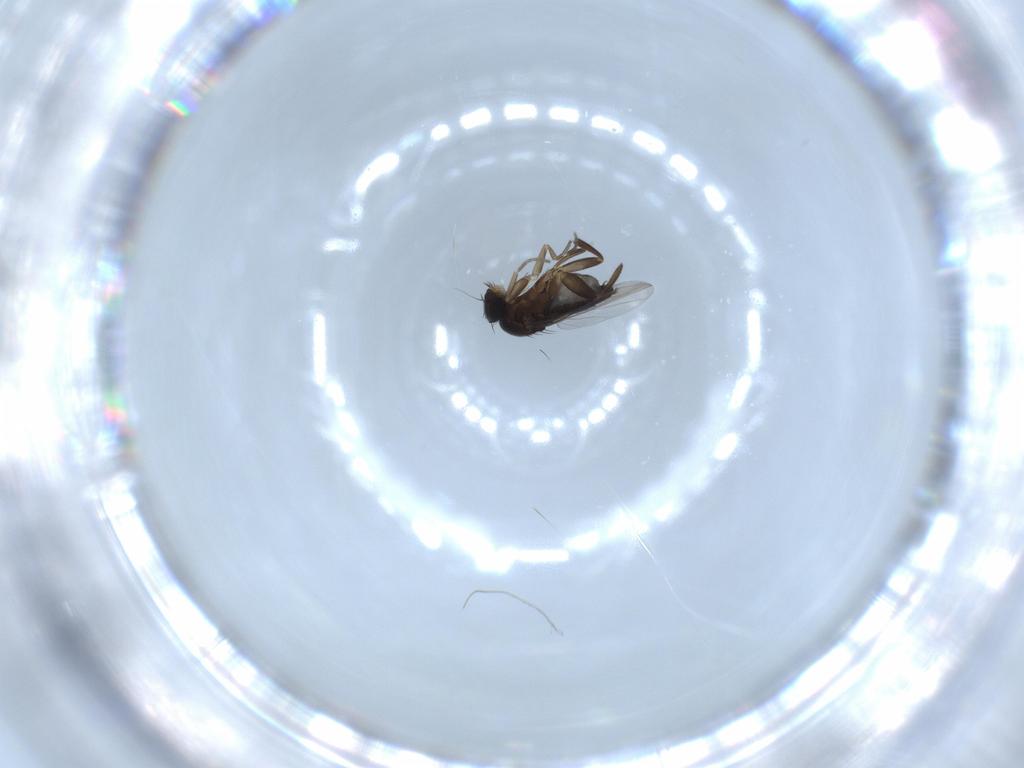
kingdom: Animalia
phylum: Arthropoda
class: Insecta
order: Diptera
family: Phoridae
